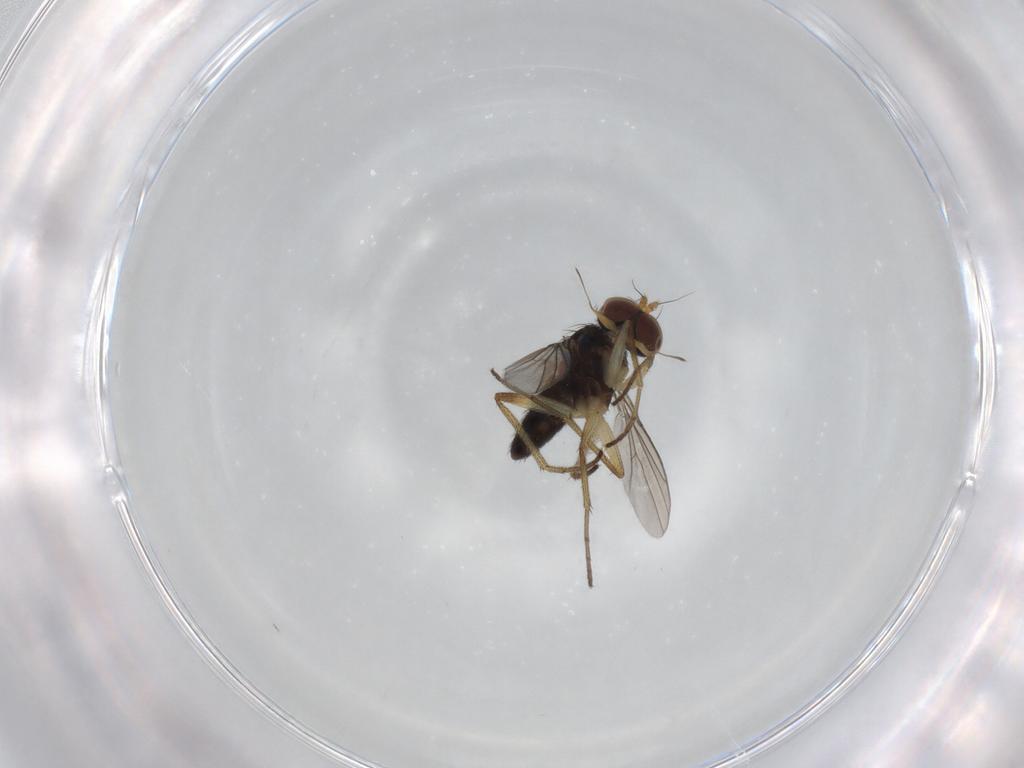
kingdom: Animalia
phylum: Arthropoda
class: Insecta
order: Diptera
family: Dolichopodidae
